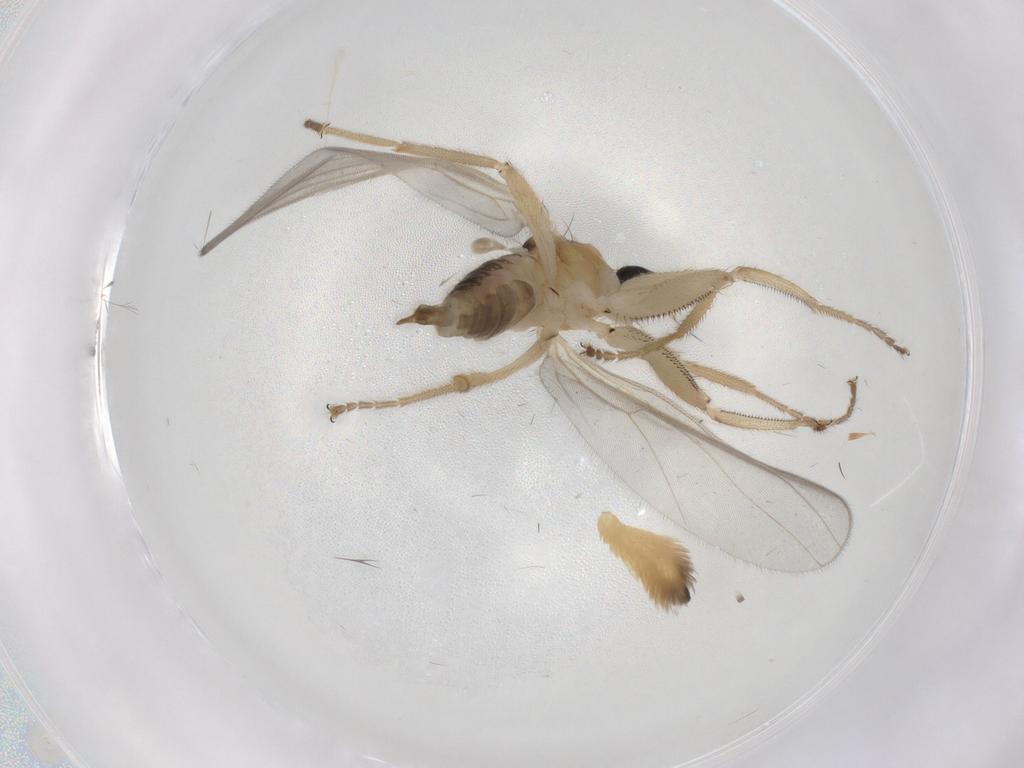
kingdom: Animalia
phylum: Arthropoda
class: Insecta
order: Diptera
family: Hybotidae
